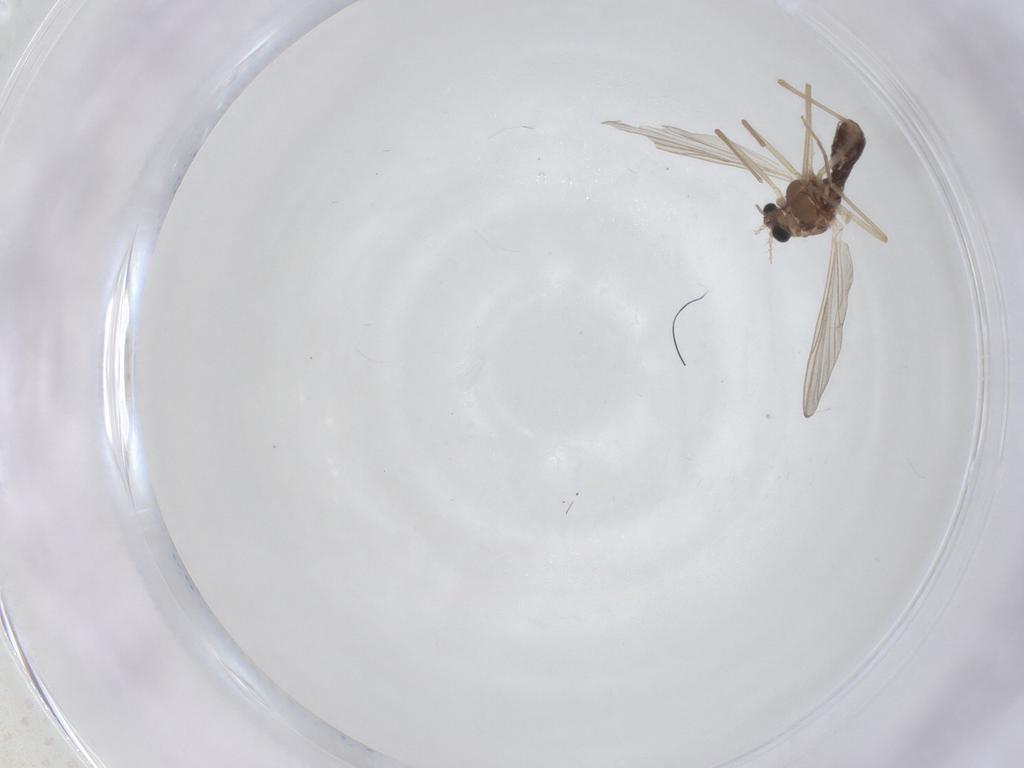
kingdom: Animalia
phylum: Arthropoda
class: Insecta
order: Diptera
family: Chironomidae
